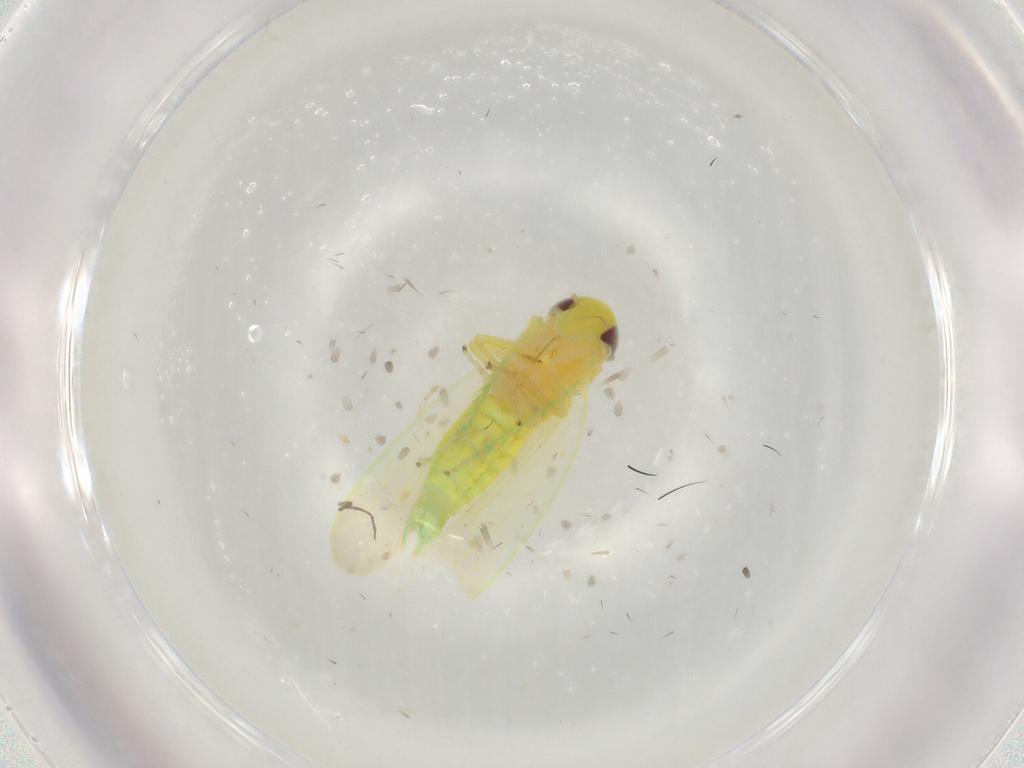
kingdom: Animalia
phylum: Arthropoda
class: Insecta
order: Hemiptera
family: Cicadellidae
